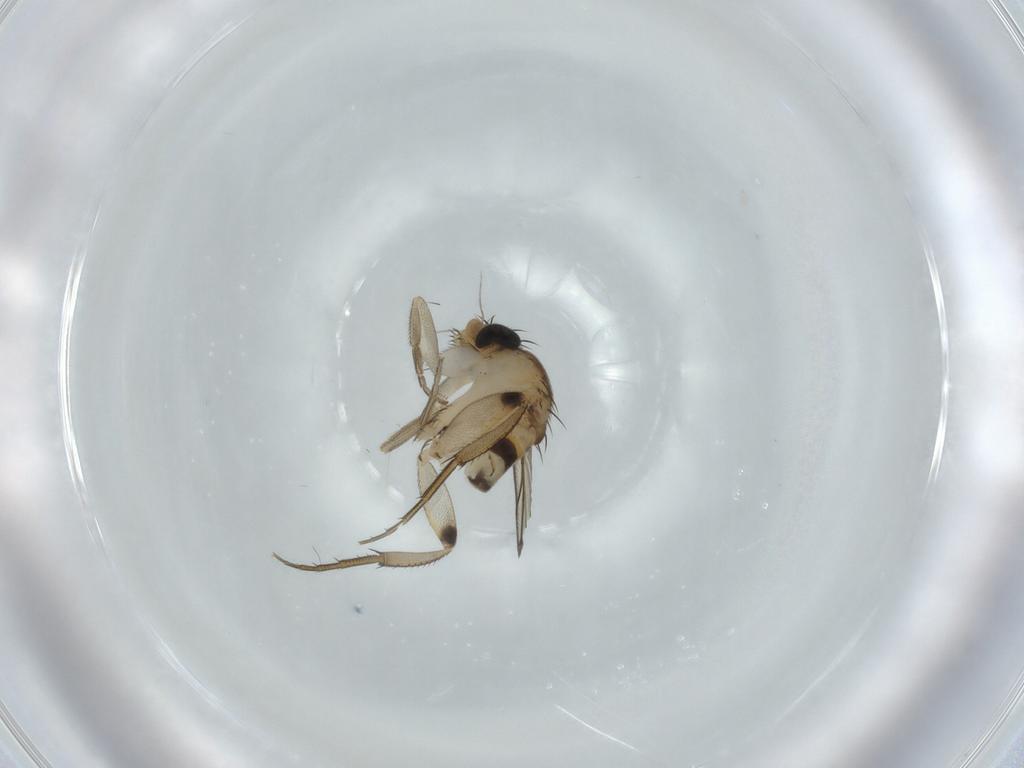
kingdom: Animalia
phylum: Arthropoda
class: Insecta
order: Diptera
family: Phoridae
